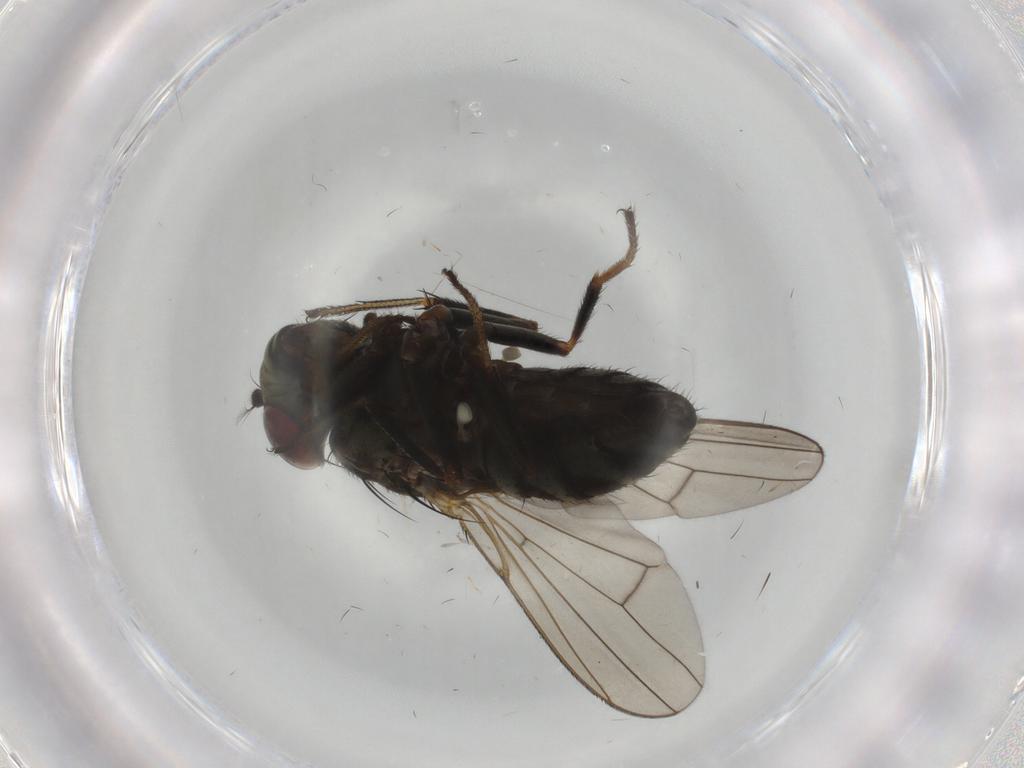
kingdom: Animalia
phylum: Arthropoda
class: Insecta
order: Diptera
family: Ephydridae
